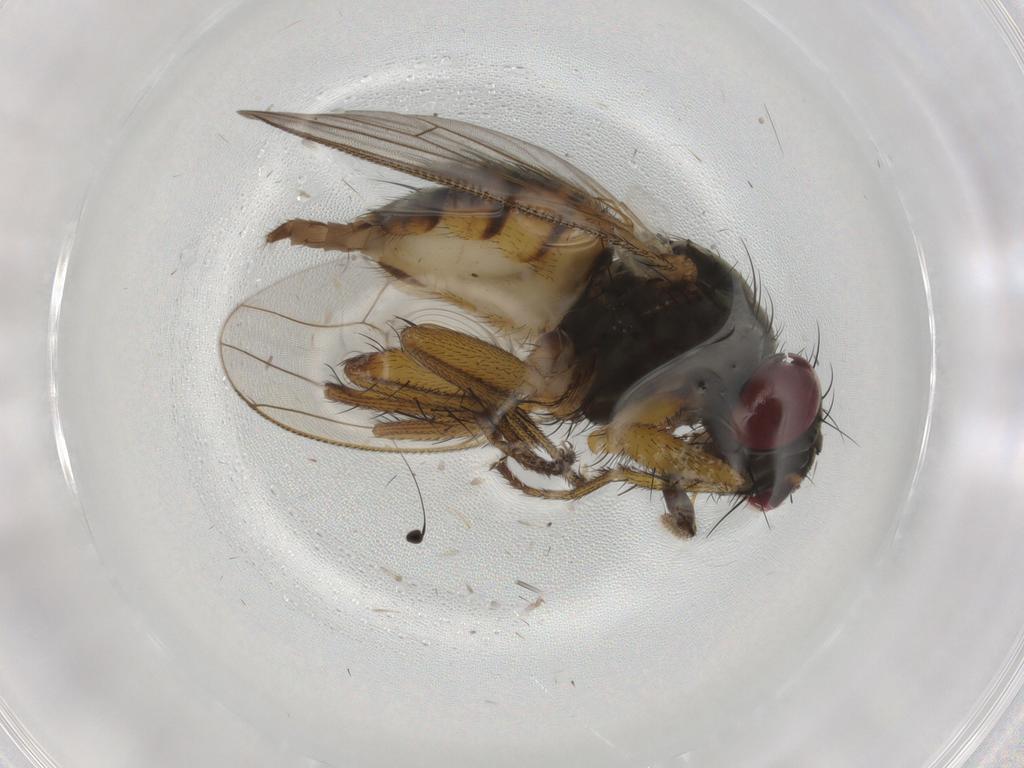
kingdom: Animalia
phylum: Arthropoda
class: Insecta
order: Diptera
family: Muscidae
